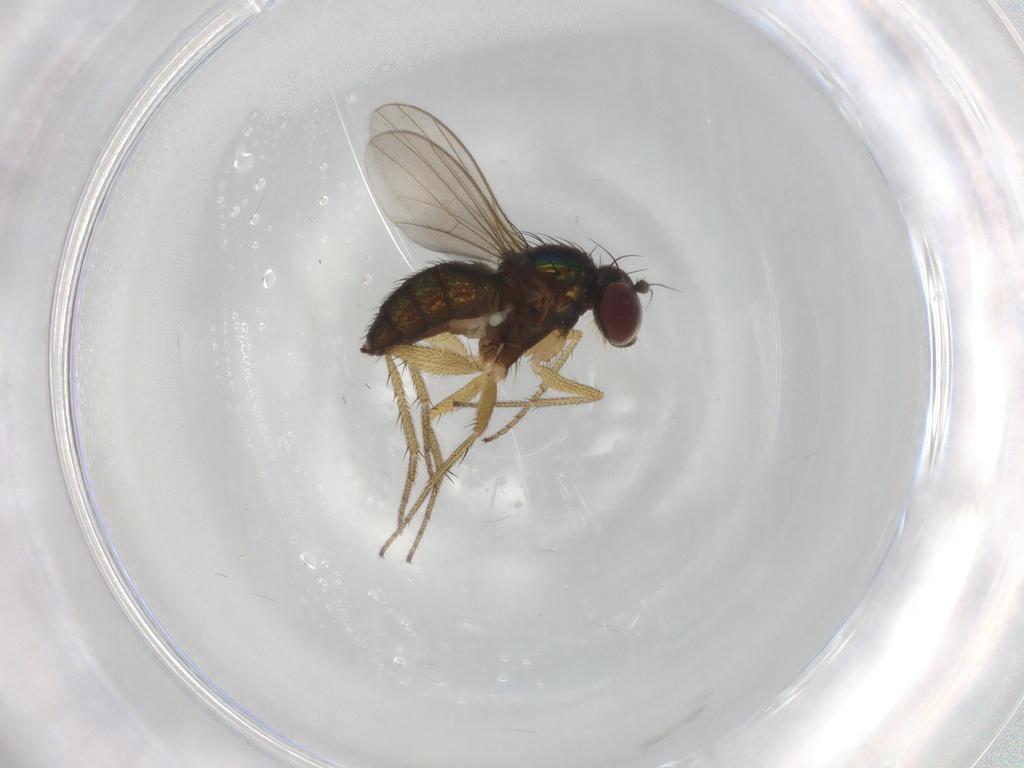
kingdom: Animalia
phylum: Arthropoda
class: Insecta
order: Diptera
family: Dolichopodidae
